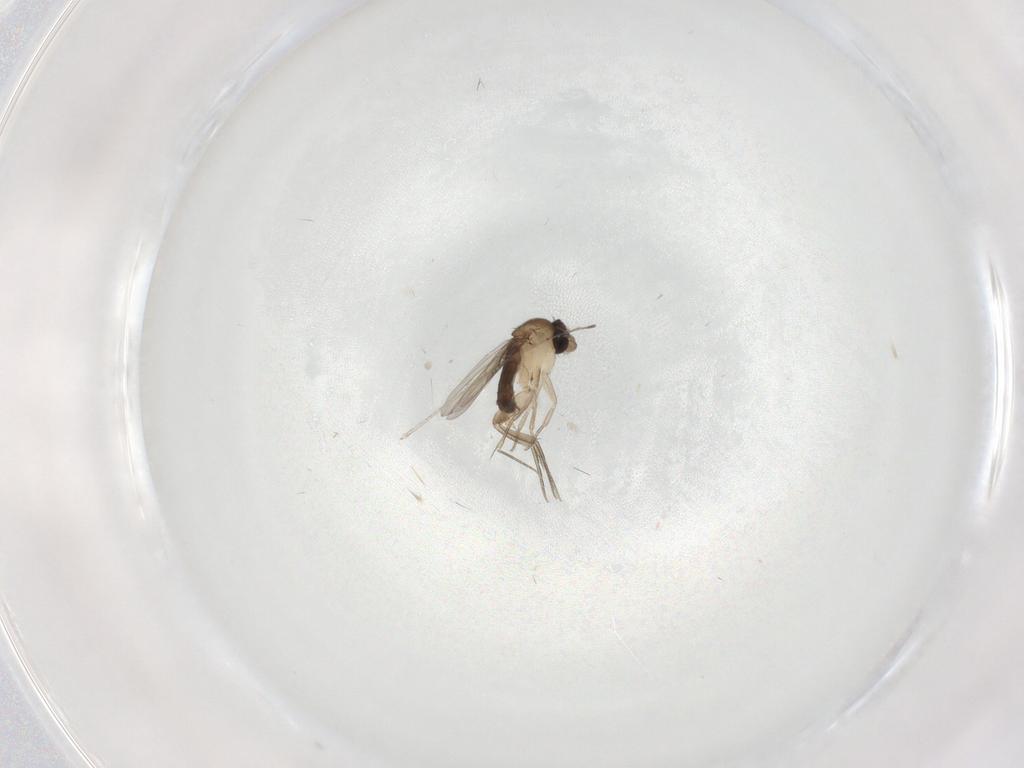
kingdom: Animalia
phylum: Arthropoda
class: Insecta
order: Diptera
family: Cecidomyiidae
